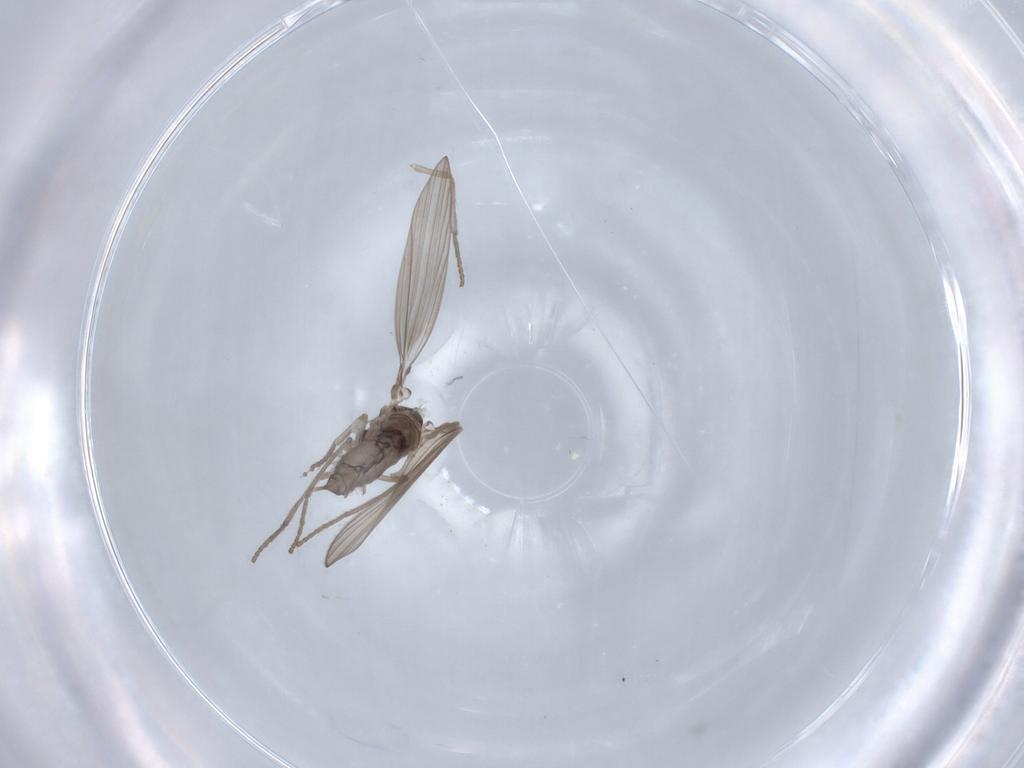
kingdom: Animalia
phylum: Arthropoda
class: Insecta
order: Diptera
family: Psychodidae
